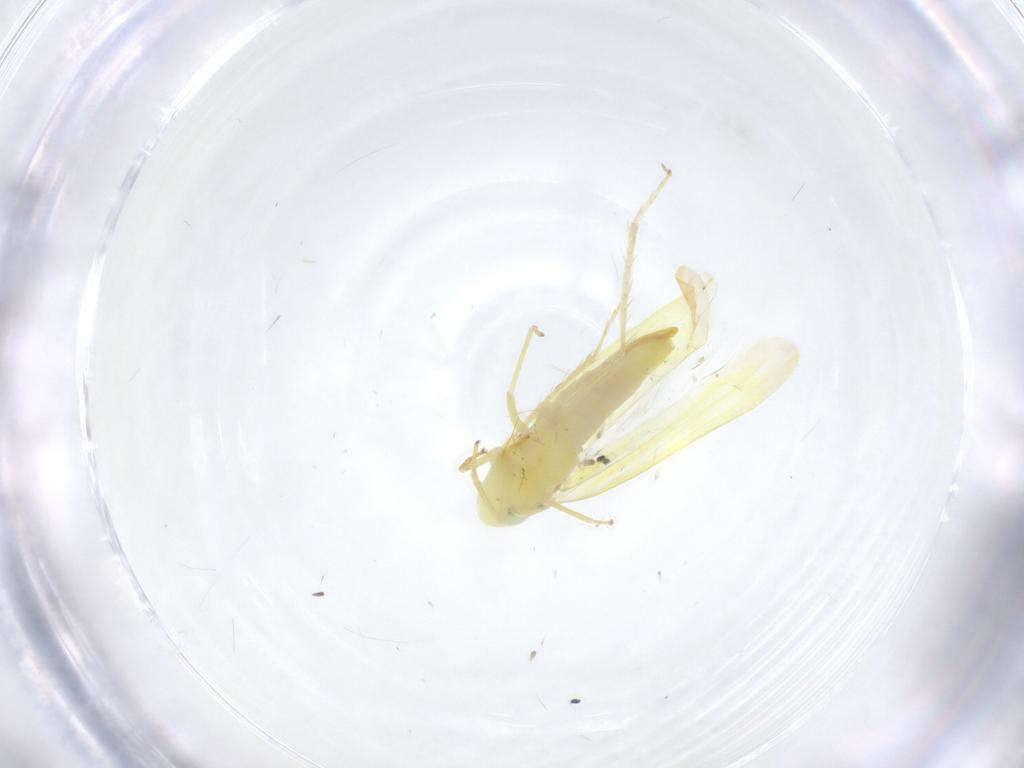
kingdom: Animalia
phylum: Arthropoda
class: Insecta
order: Hemiptera
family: Cicadellidae
